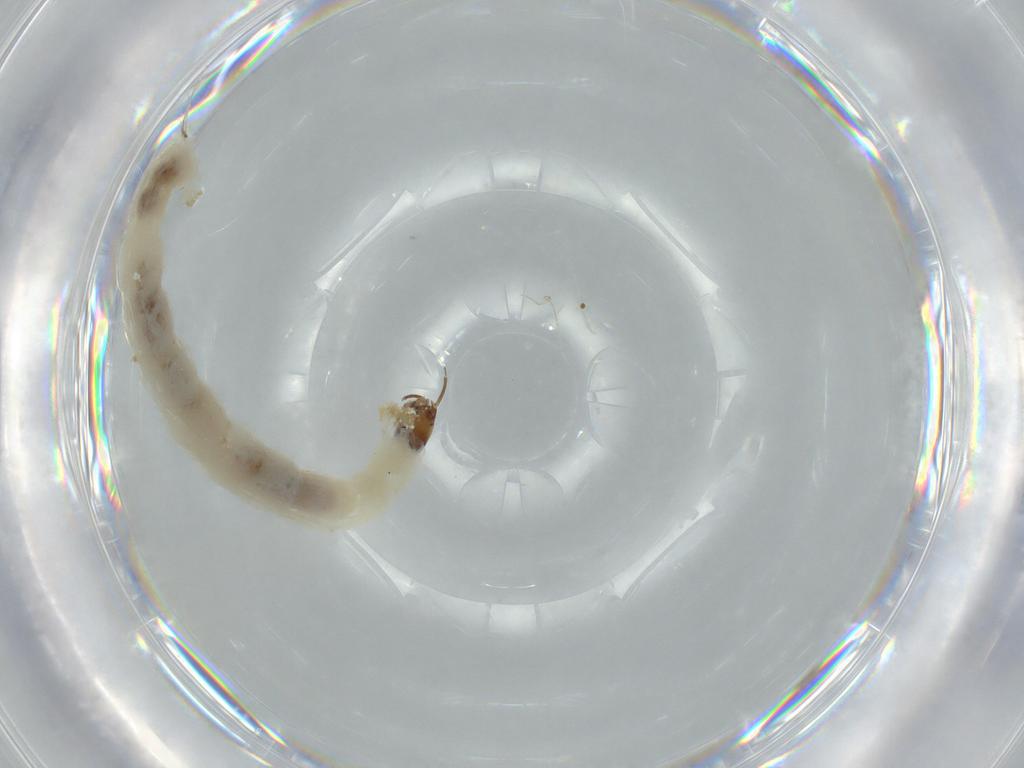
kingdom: Animalia
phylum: Arthropoda
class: Insecta
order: Diptera
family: Chironomidae
